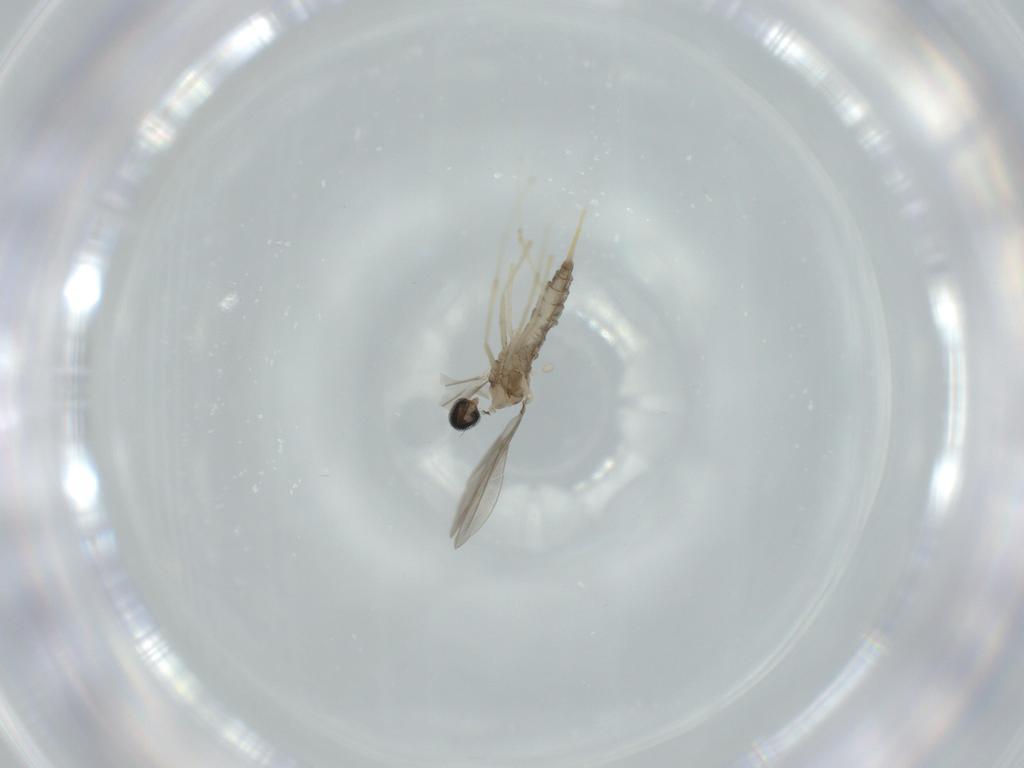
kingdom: Animalia
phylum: Arthropoda
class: Insecta
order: Diptera
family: Cecidomyiidae
